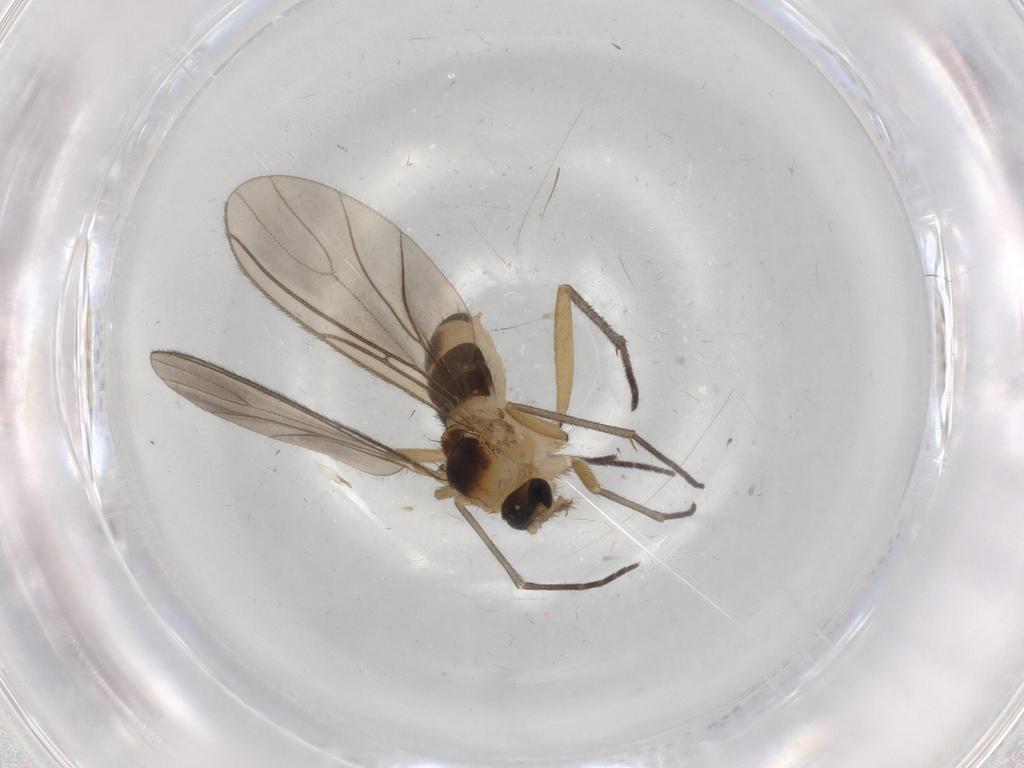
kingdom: Animalia
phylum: Arthropoda
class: Insecta
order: Diptera
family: Sciaridae
